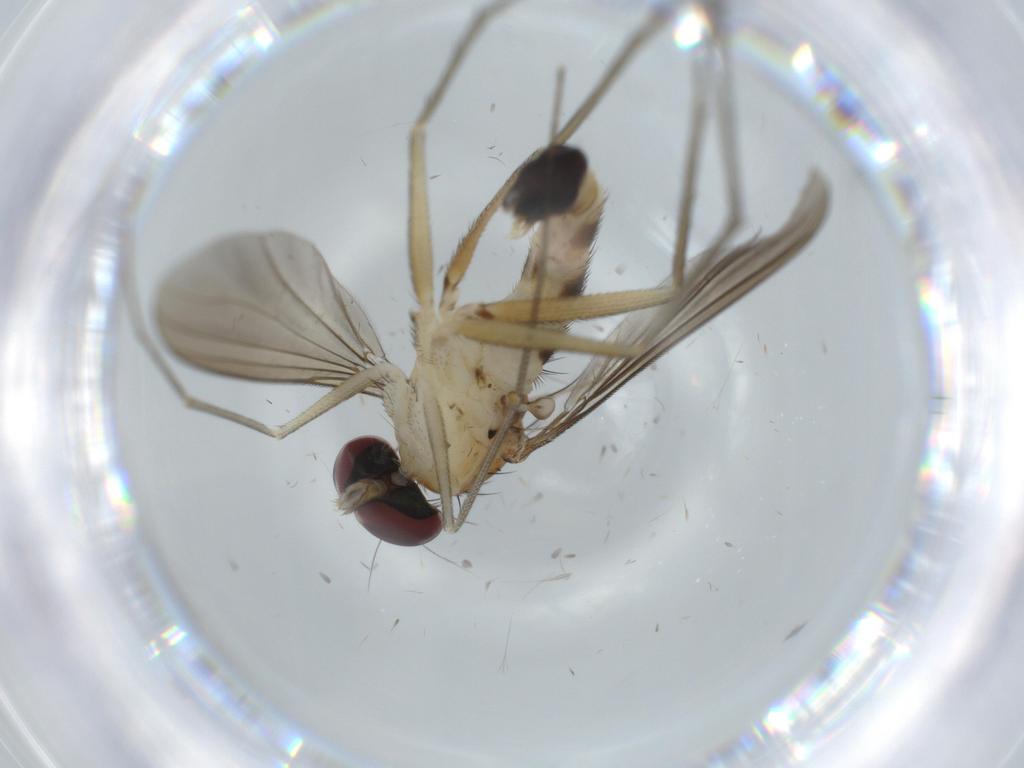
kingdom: Animalia
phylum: Arthropoda
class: Insecta
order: Diptera
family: Dolichopodidae
